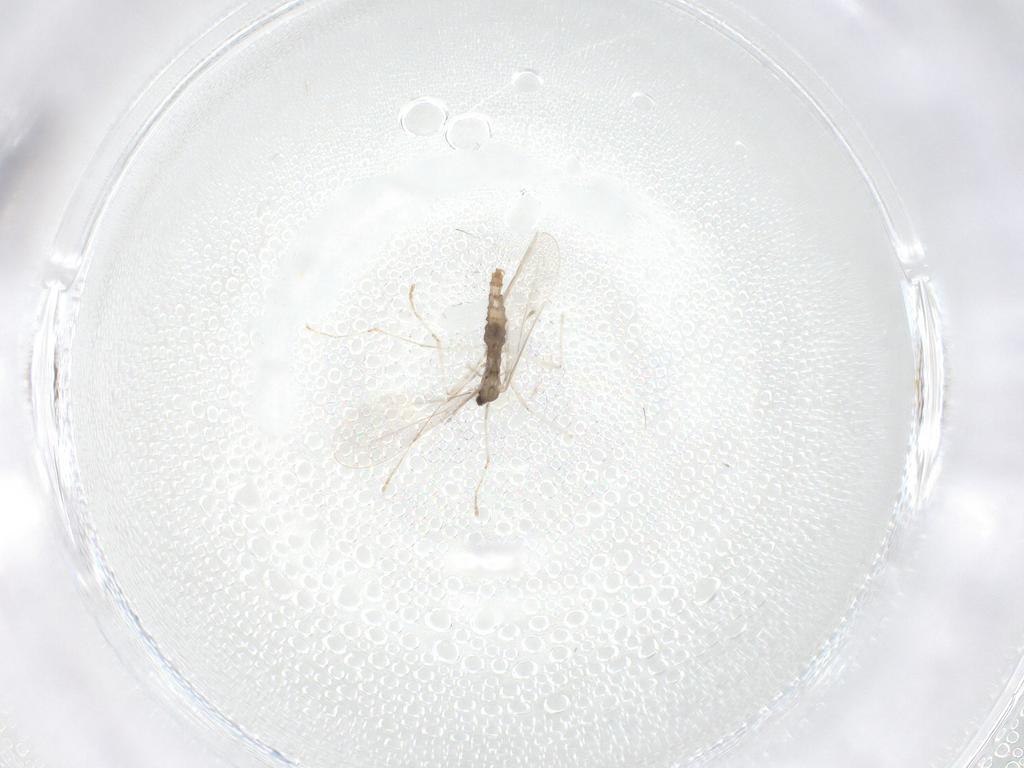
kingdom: Animalia
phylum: Arthropoda
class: Insecta
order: Diptera
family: Cecidomyiidae
